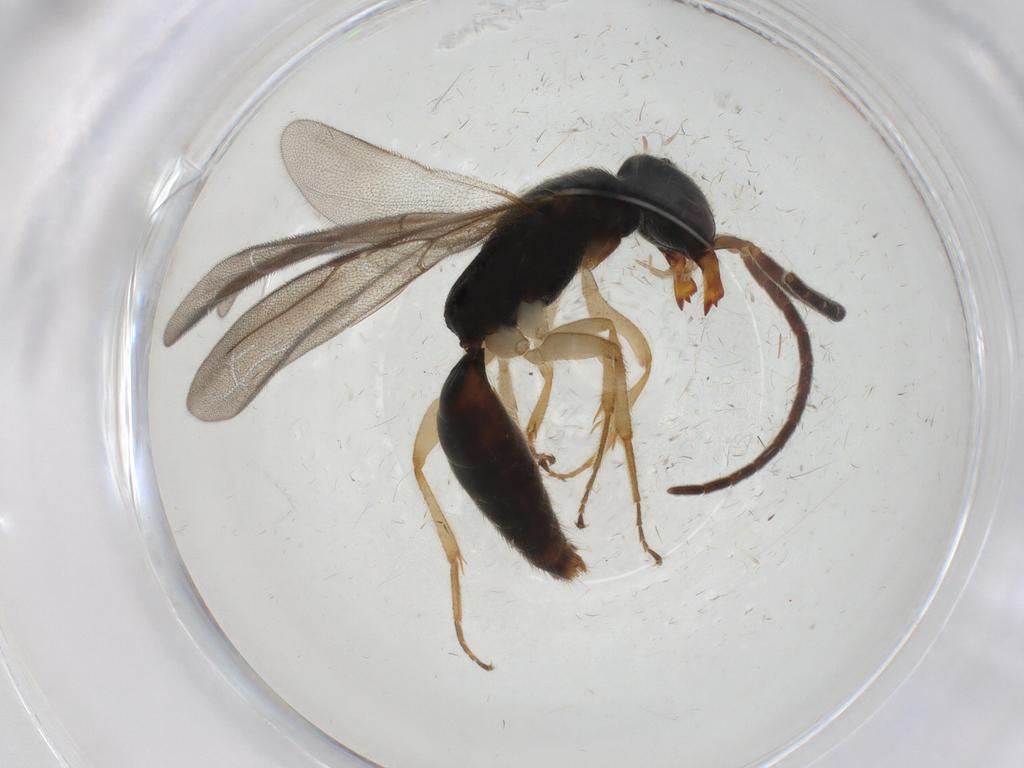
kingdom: Animalia
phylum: Arthropoda
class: Insecta
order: Hymenoptera
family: Bethylidae
